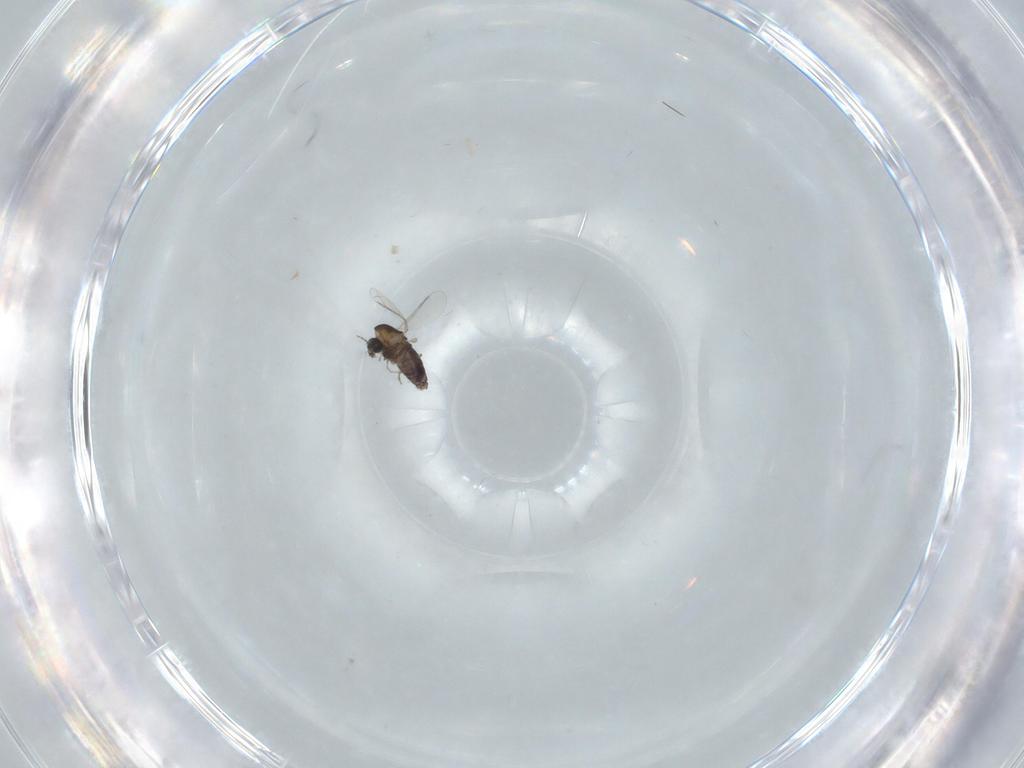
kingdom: Animalia
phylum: Arthropoda
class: Insecta
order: Diptera
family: Chironomidae
